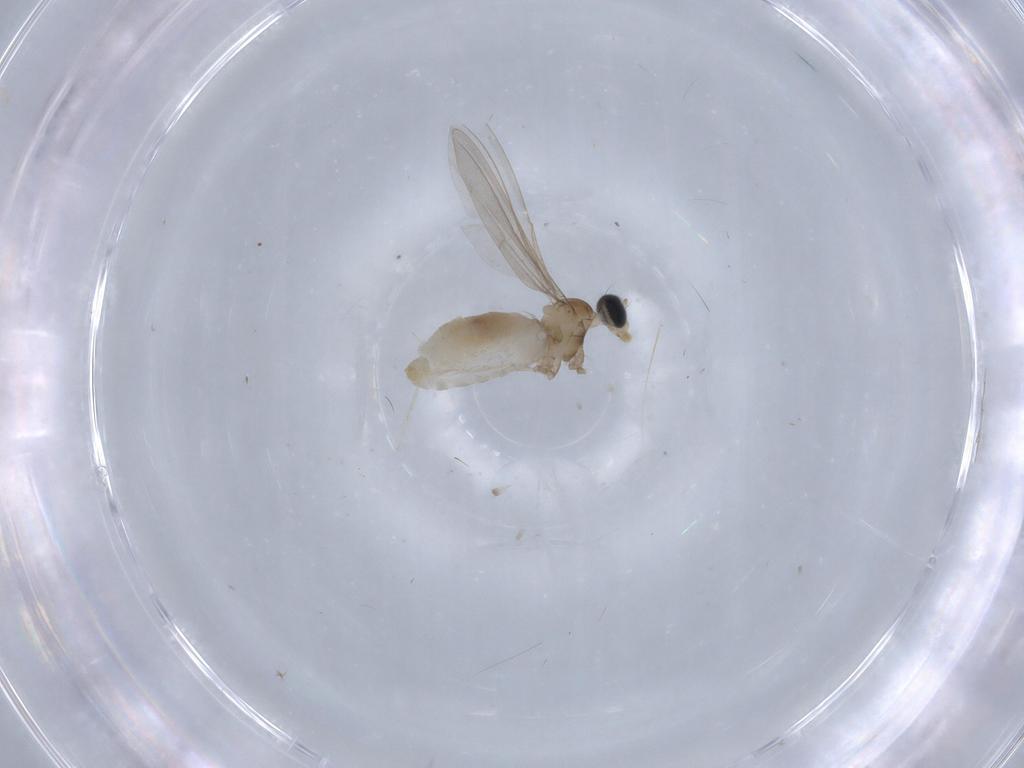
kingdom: Animalia
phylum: Arthropoda
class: Insecta
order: Diptera
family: Cecidomyiidae
